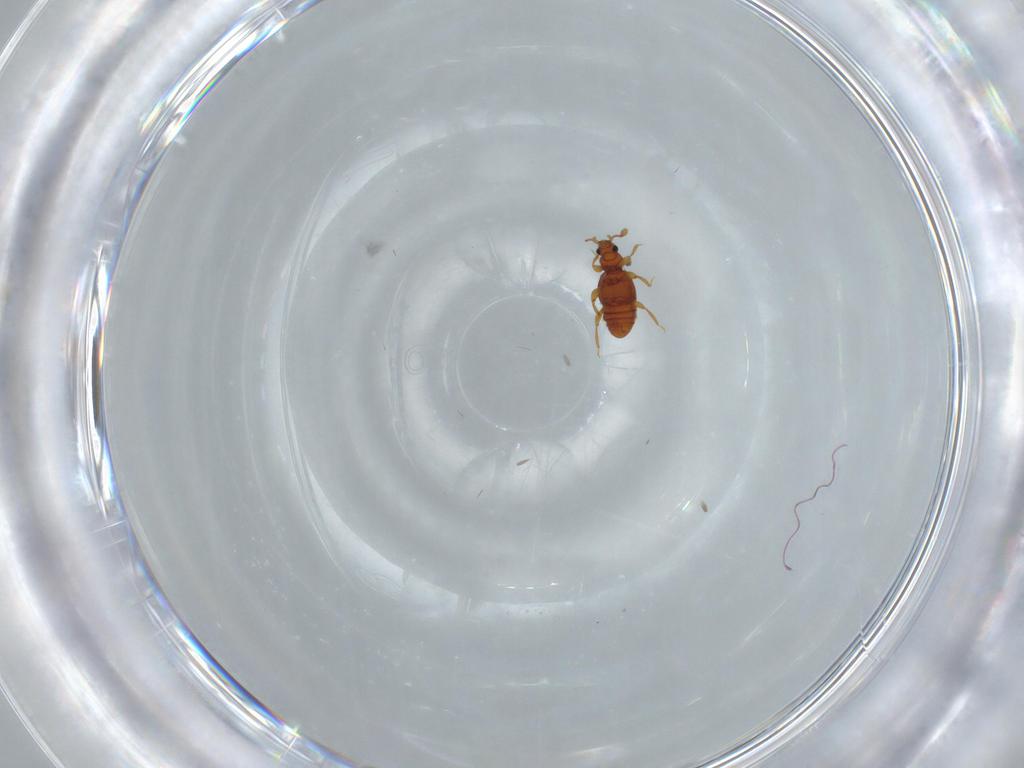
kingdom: Animalia
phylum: Arthropoda
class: Insecta
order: Coleoptera
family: Staphylinidae
